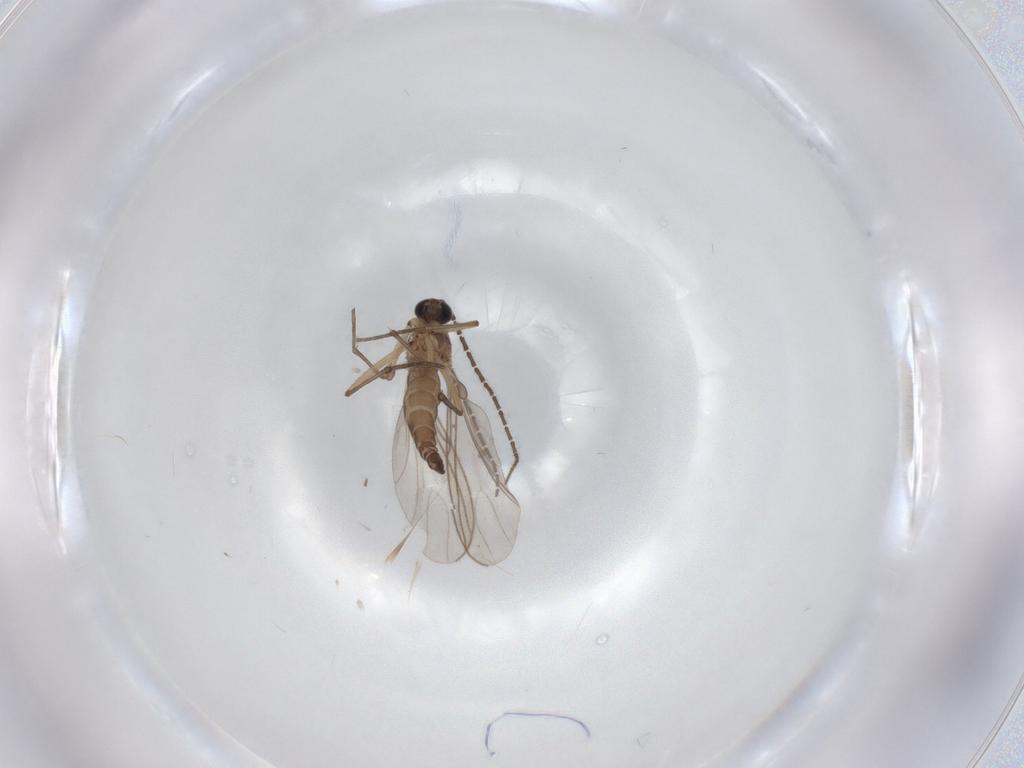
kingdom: Animalia
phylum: Arthropoda
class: Insecta
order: Diptera
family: Sciaridae
